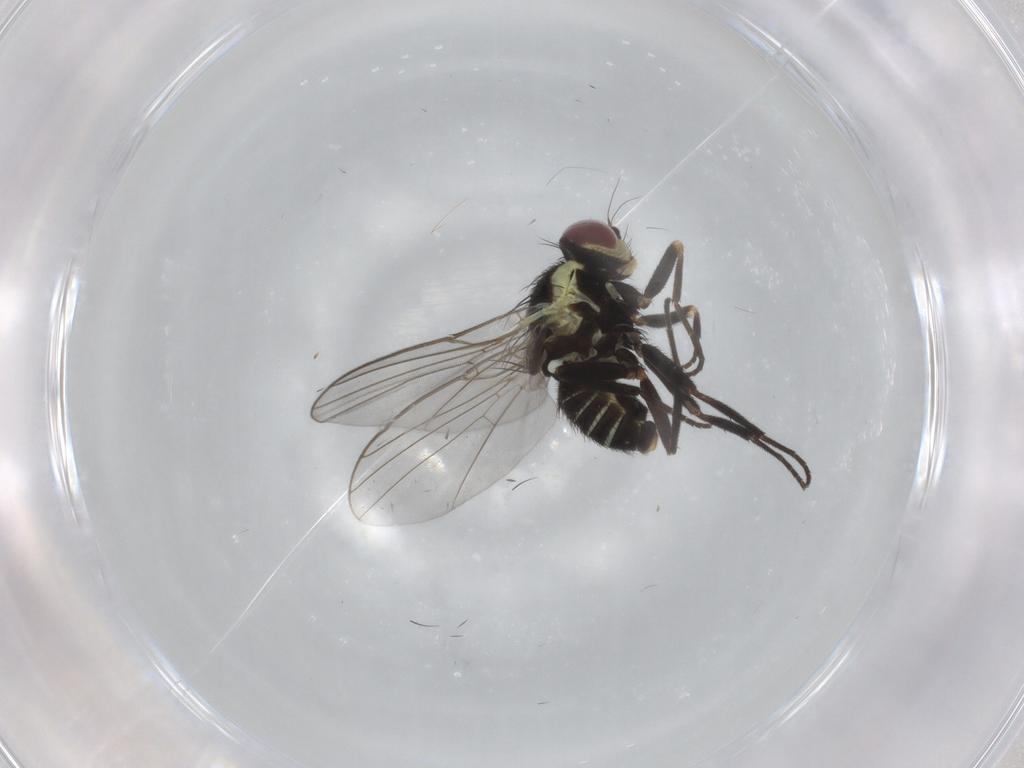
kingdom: Animalia
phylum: Arthropoda
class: Insecta
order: Diptera
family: Agromyzidae
